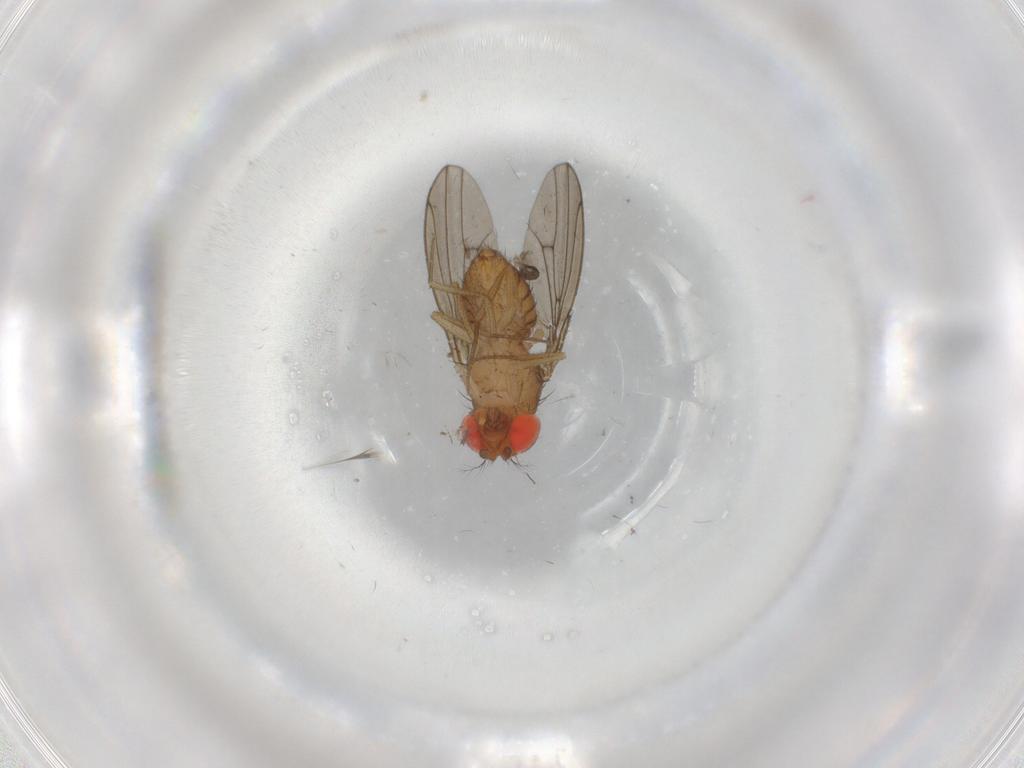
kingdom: Animalia
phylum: Arthropoda
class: Insecta
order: Diptera
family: Drosophilidae
